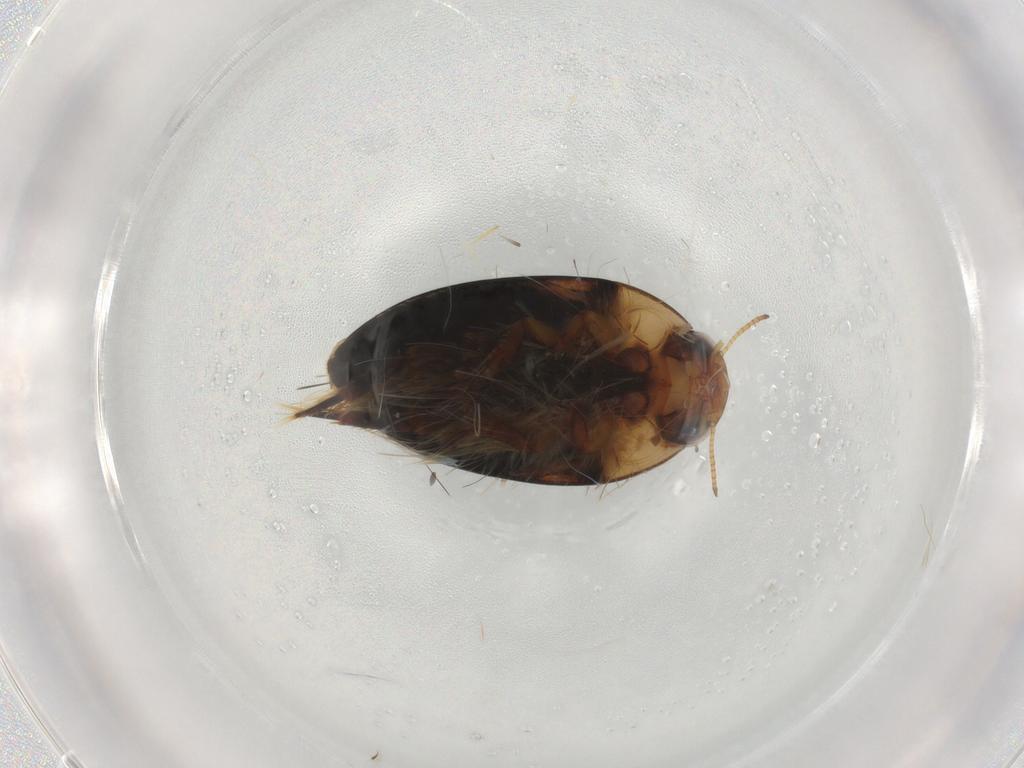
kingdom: Animalia
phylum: Arthropoda
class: Insecta
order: Coleoptera
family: Noteridae
